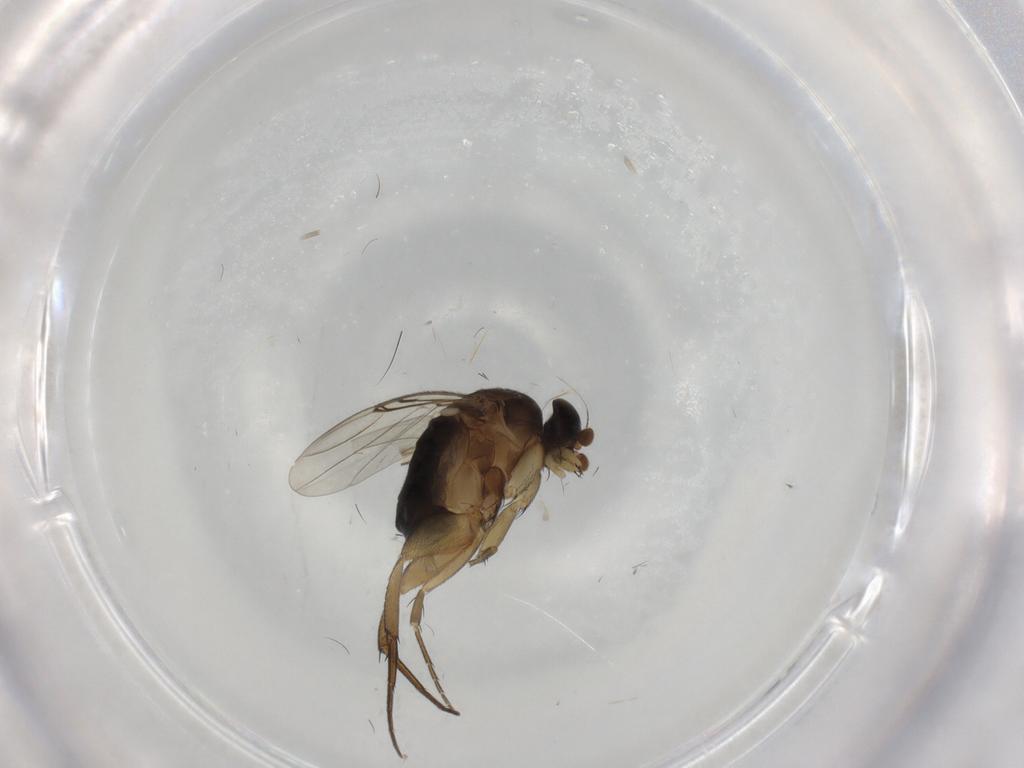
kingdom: Animalia
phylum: Arthropoda
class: Insecta
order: Diptera
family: Phoridae
